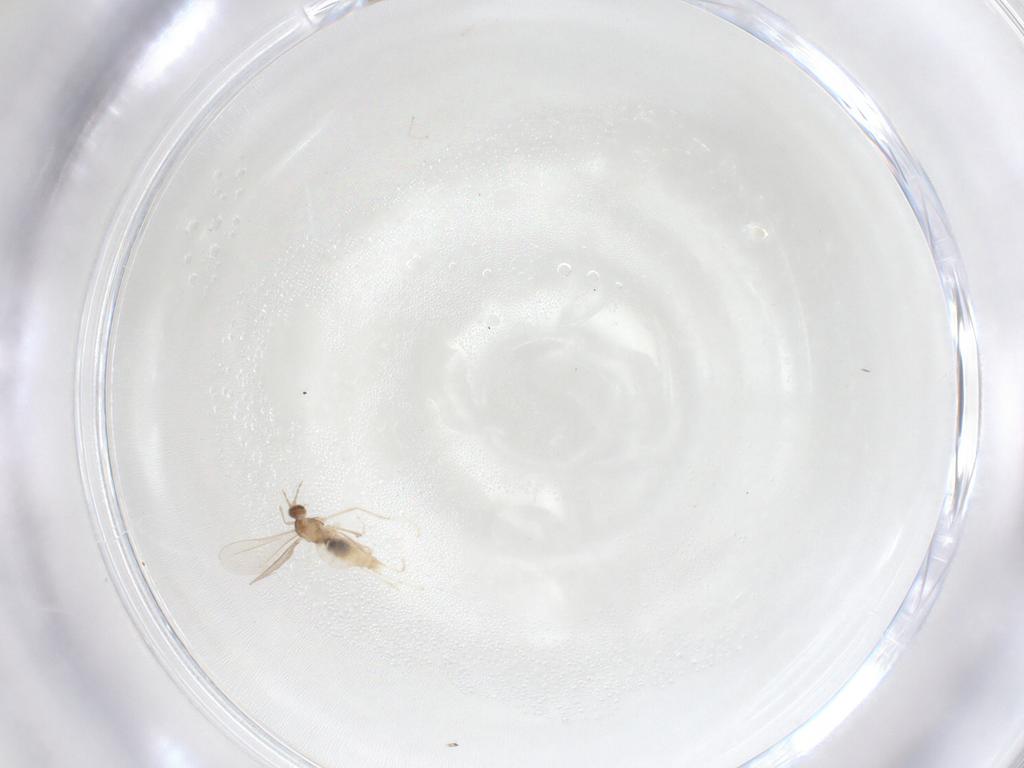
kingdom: Animalia
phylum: Arthropoda
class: Insecta
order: Diptera
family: Cecidomyiidae
